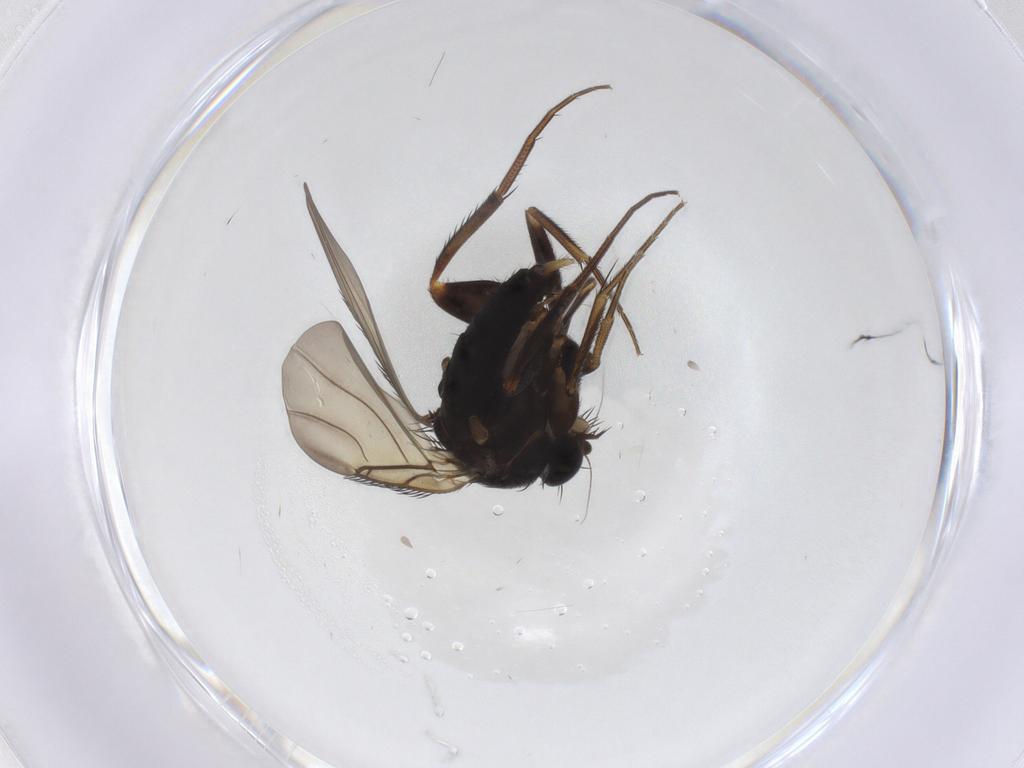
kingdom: Animalia
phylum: Arthropoda
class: Insecta
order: Diptera
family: Phoridae
